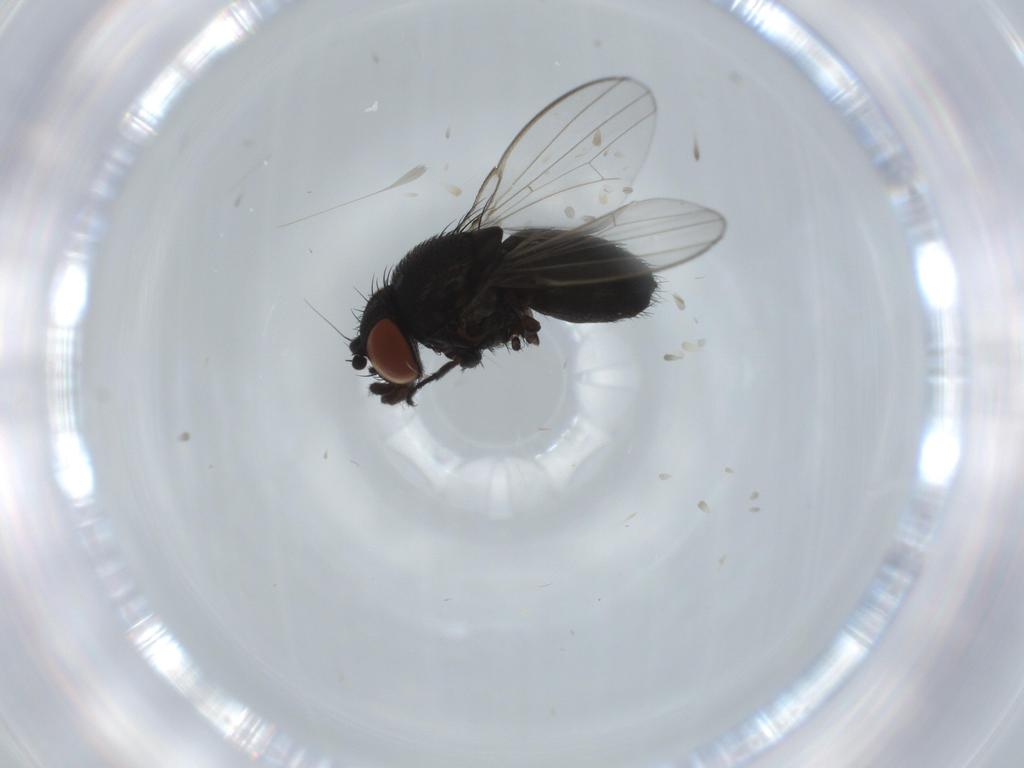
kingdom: Animalia
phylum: Arthropoda
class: Insecta
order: Diptera
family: Milichiidae
